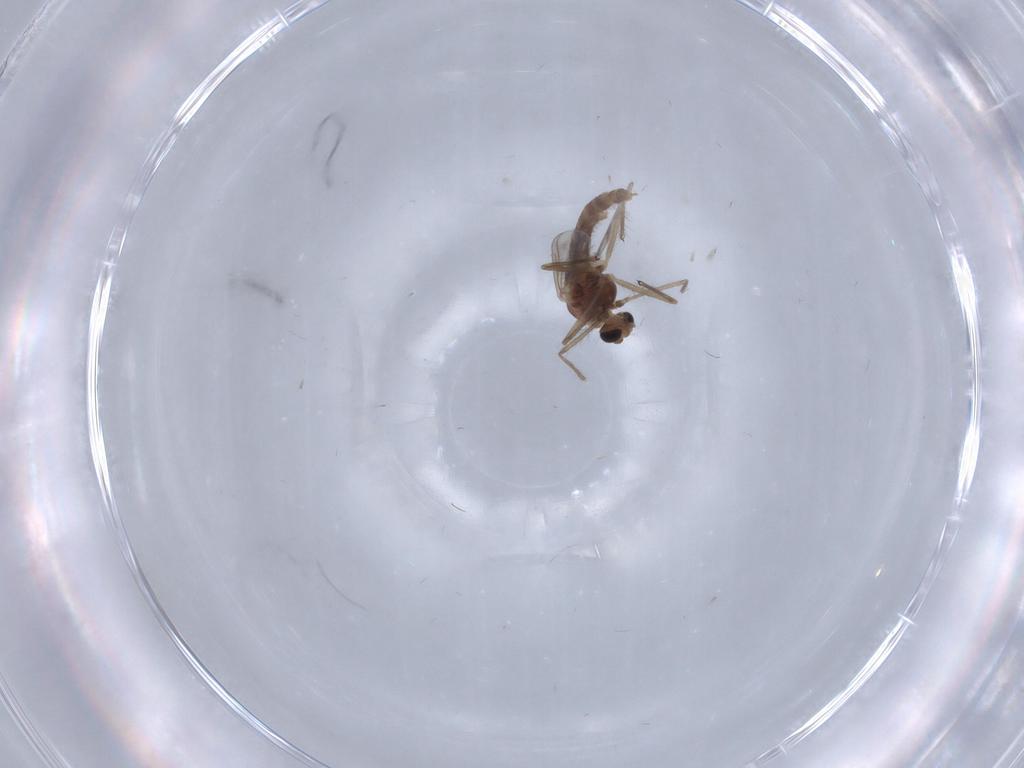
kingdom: Animalia
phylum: Arthropoda
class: Insecta
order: Diptera
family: Chironomidae
